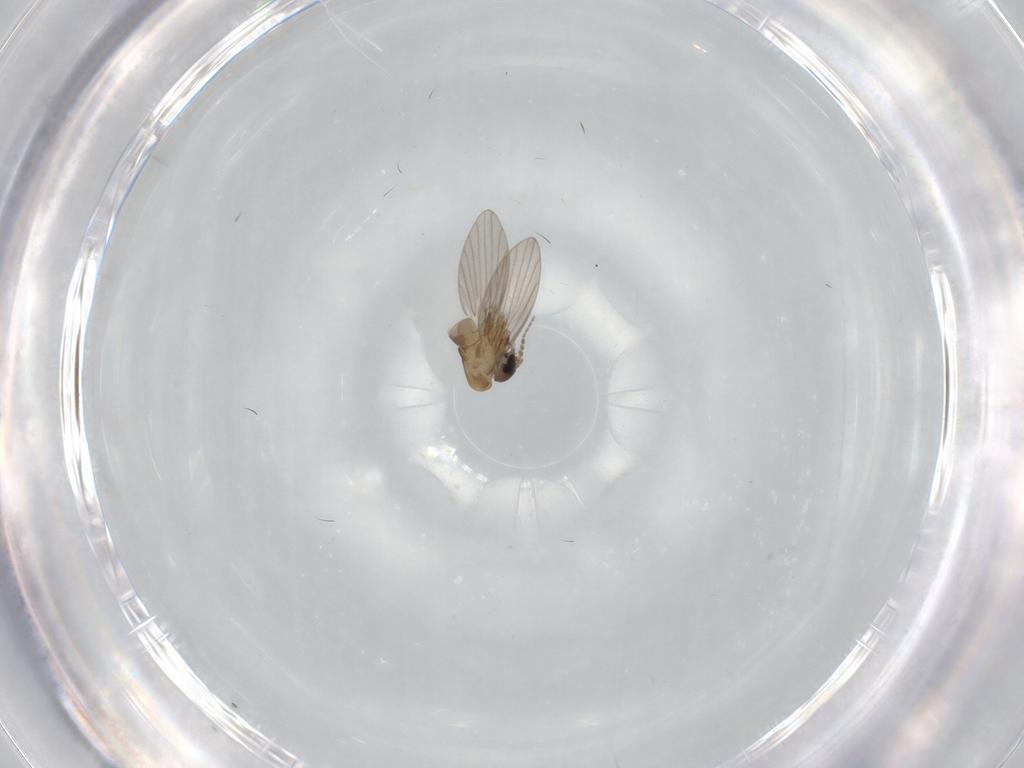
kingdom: Animalia
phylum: Arthropoda
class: Insecta
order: Diptera
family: Limoniidae
